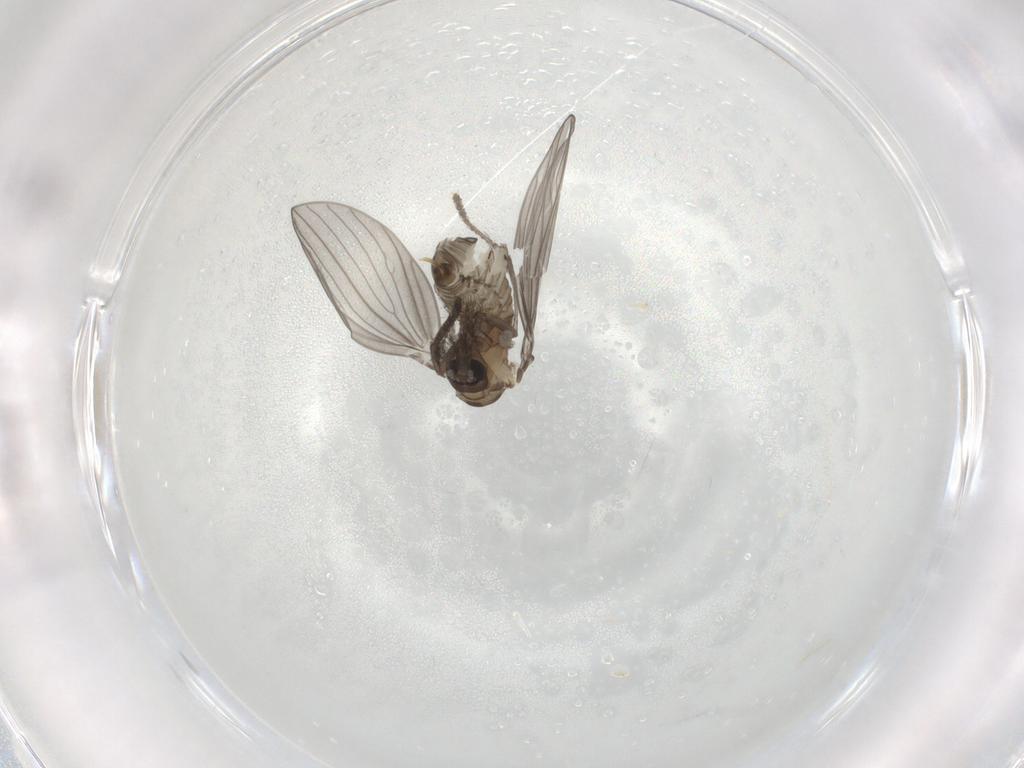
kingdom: Animalia
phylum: Arthropoda
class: Insecta
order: Diptera
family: Psychodidae
